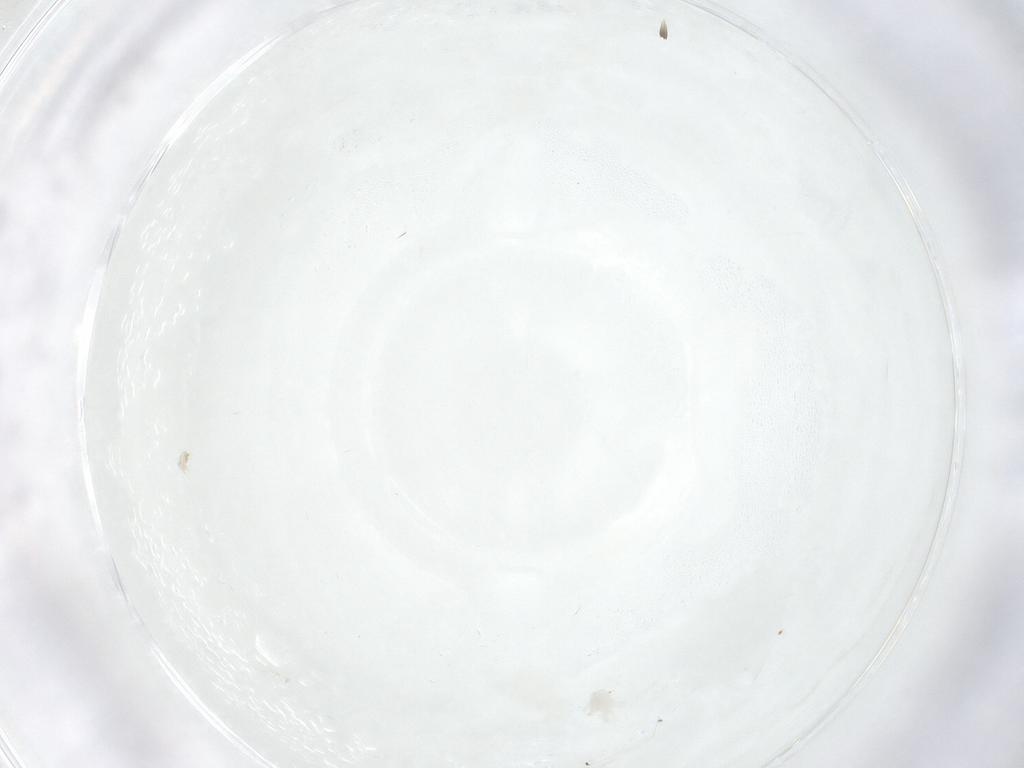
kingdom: Animalia
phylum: Arthropoda
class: Arachnida
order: Mesostigmata
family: Melicharidae
